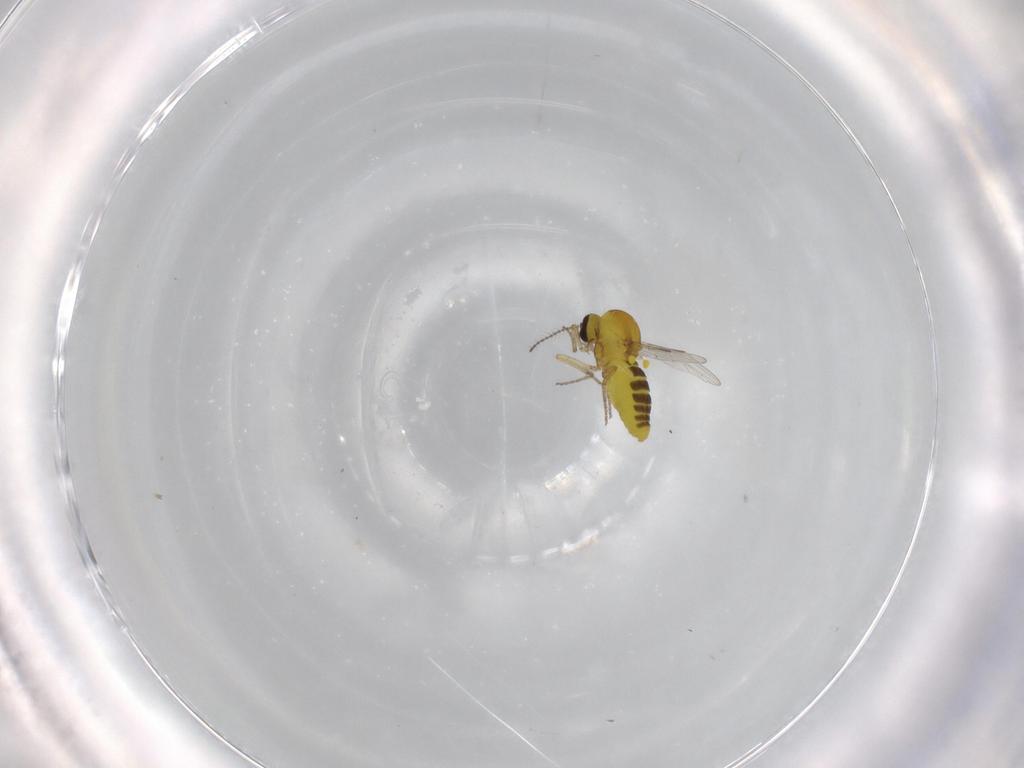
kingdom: Animalia
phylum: Arthropoda
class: Insecta
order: Diptera
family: Ceratopogonidae
